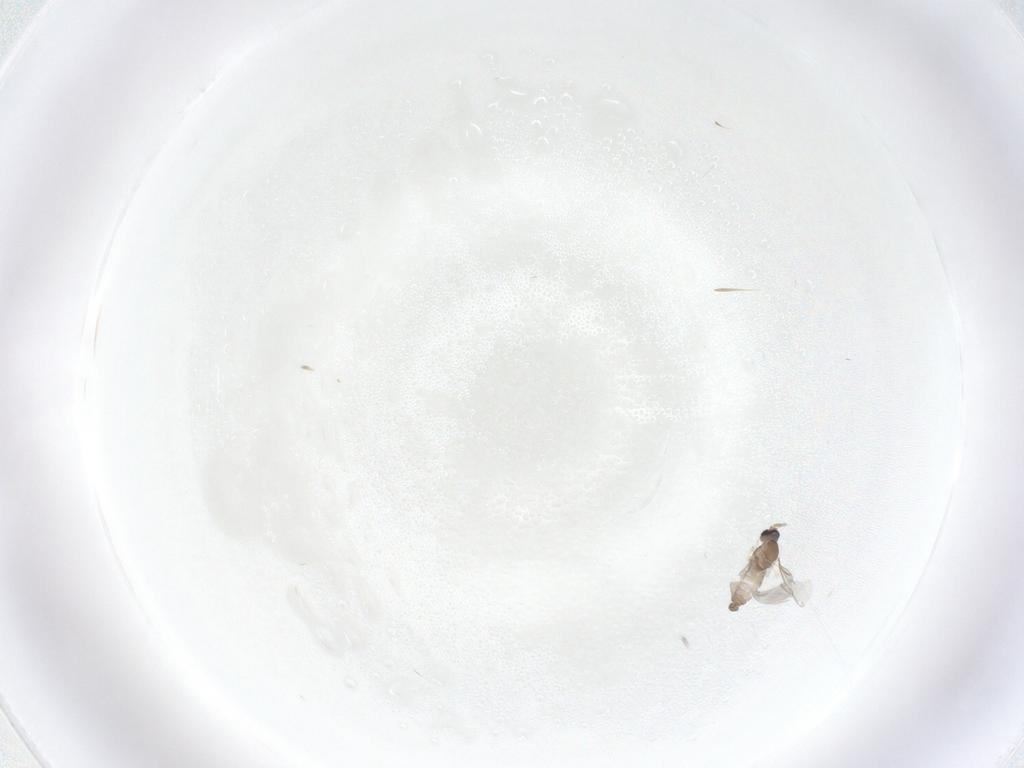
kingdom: Animalia
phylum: Arthropoda
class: Insecta
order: Diptera
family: Cecidomyiidae
